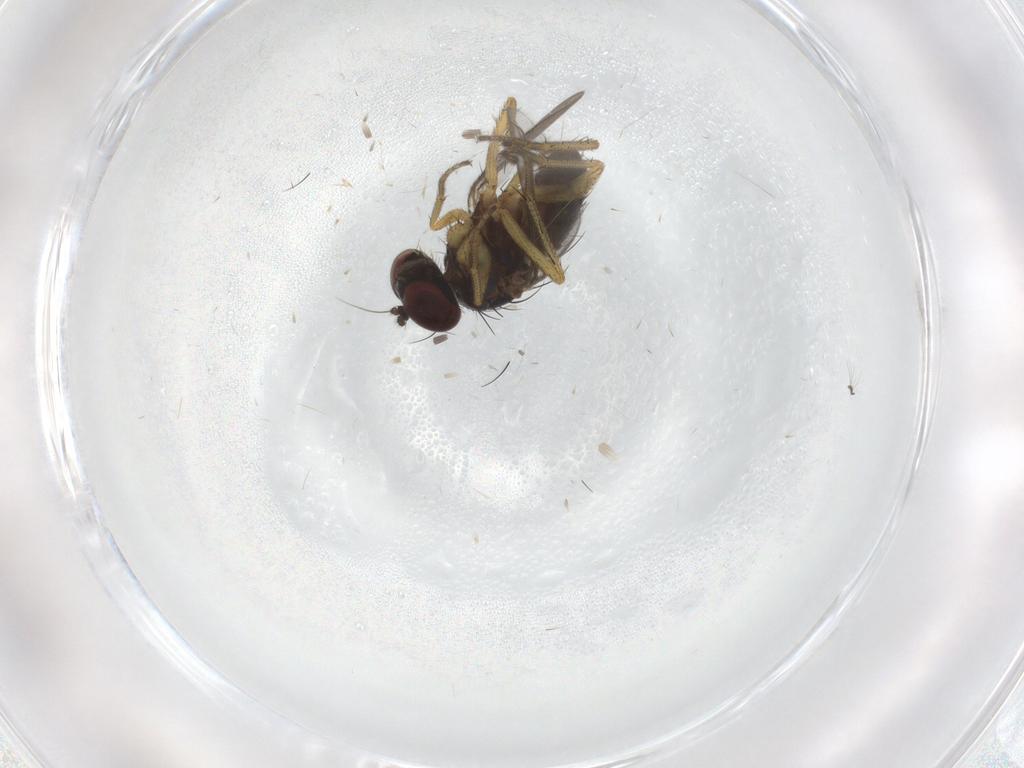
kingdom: Animalia
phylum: Arthropoda
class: Insecta
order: Diptera
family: Dolichopodidae
